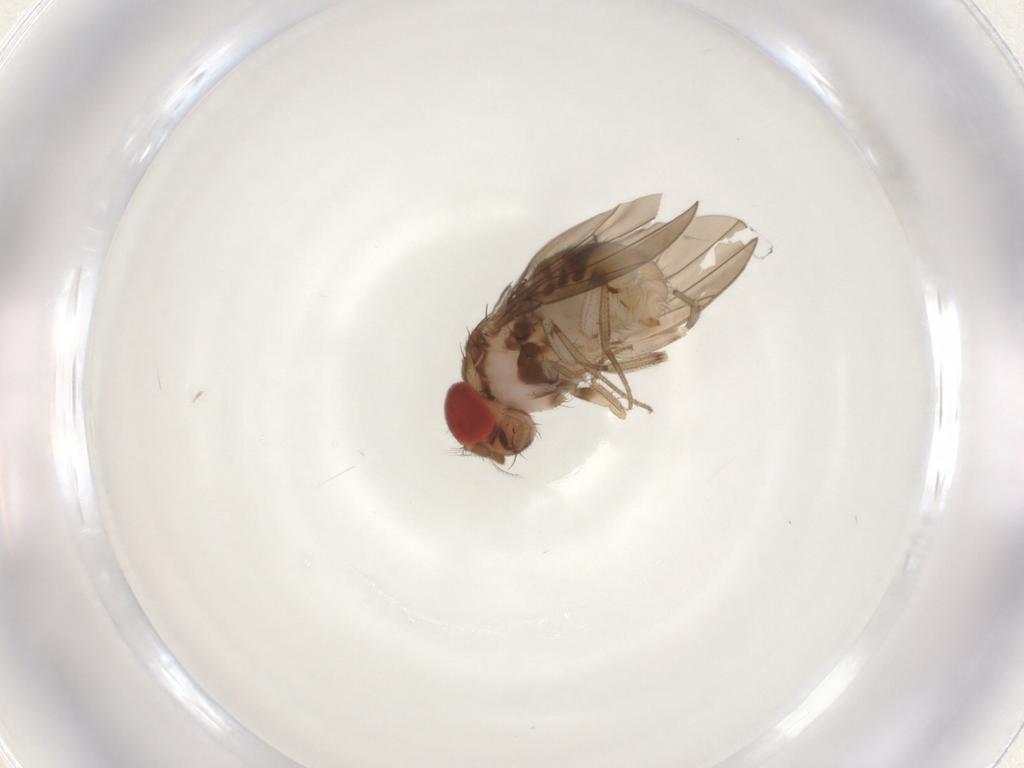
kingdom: Animalia
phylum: Arthropoda
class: Insecta
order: Diptera
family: Drosophilidae
